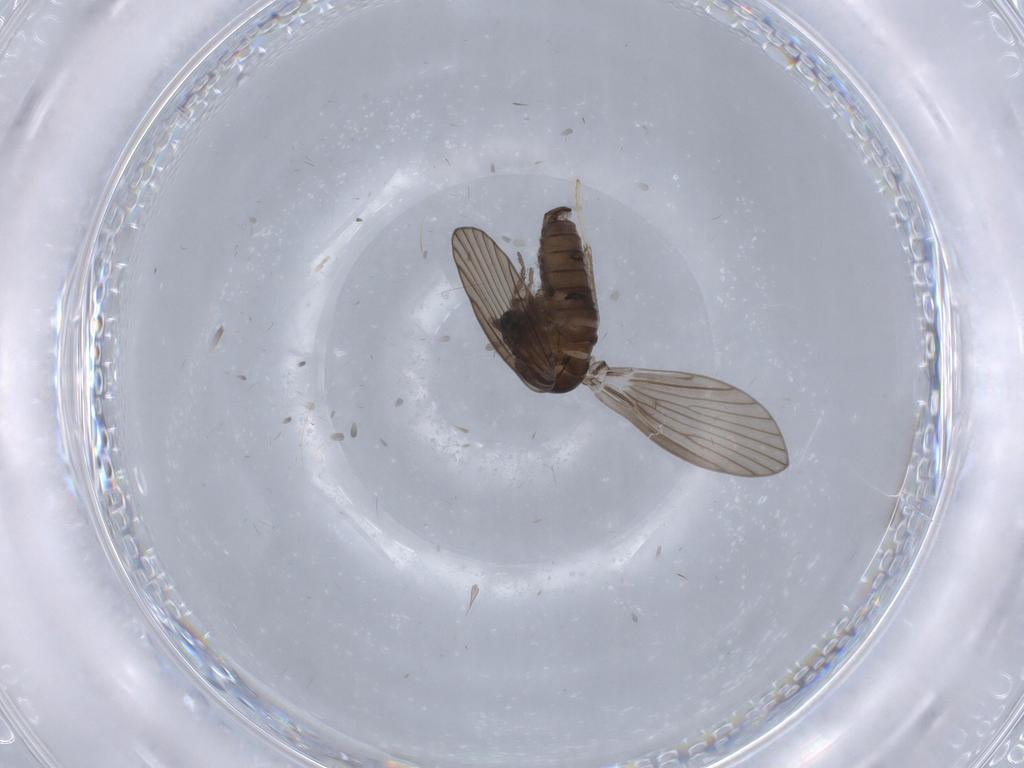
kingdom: Animalia
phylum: Arthropoda
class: Insecta
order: Diptera
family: Psychodidae
